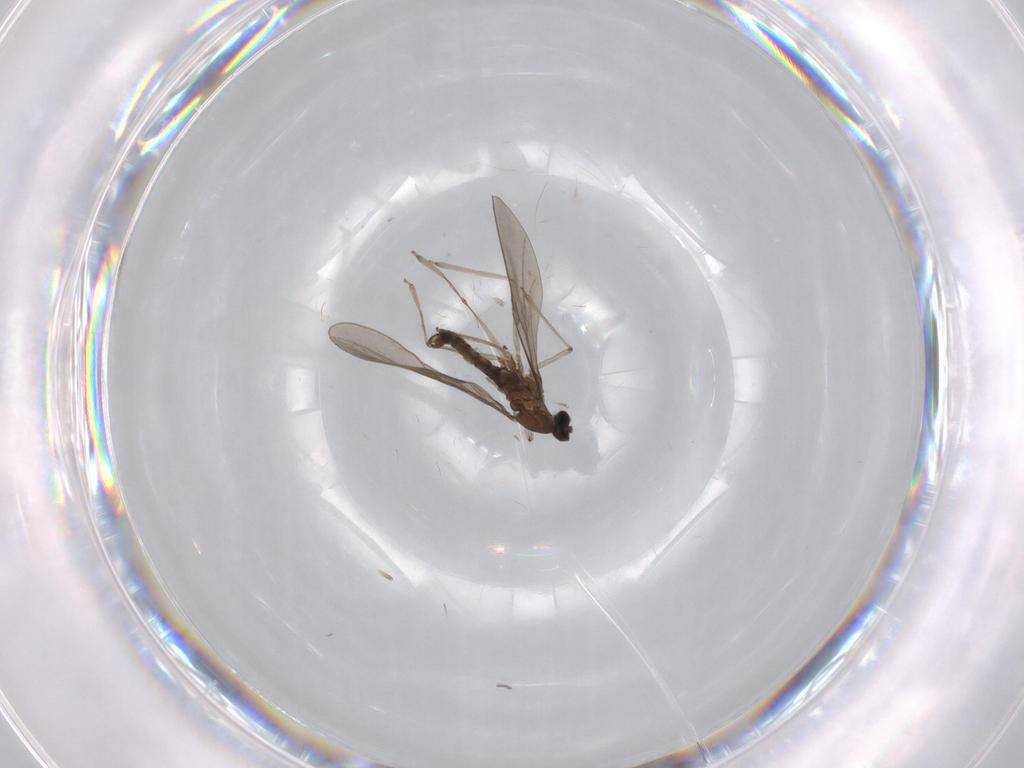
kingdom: Animalia
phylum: Arthropoda
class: Insecta
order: Diptera
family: Cecidomyiidae
